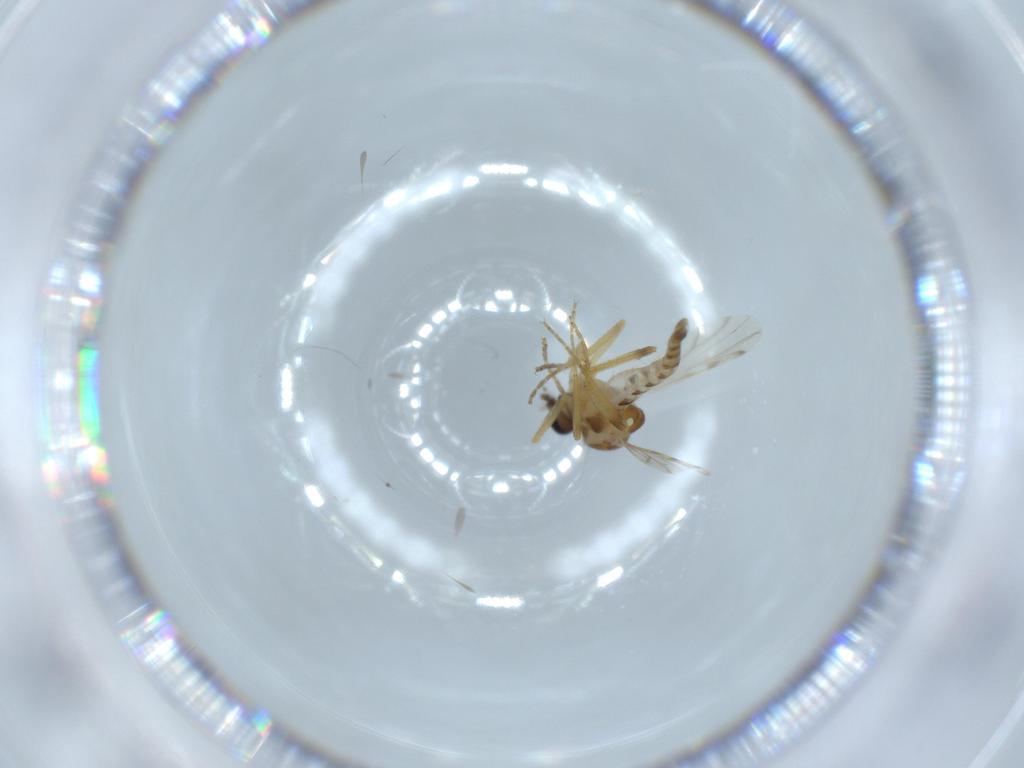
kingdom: Animalia
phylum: Arthropoda
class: Insecta
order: Diptera
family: Ceratopogonidae
